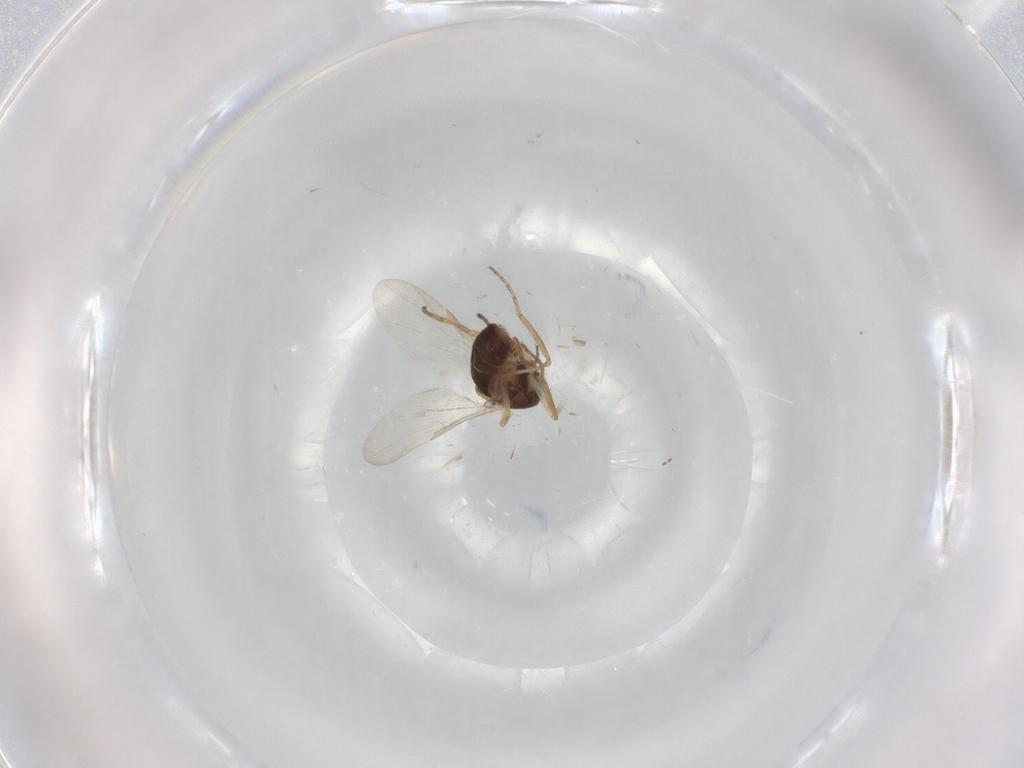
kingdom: Animalia
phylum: Arthropoda
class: Insecta
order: Diptera
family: Ceratopogonidae
